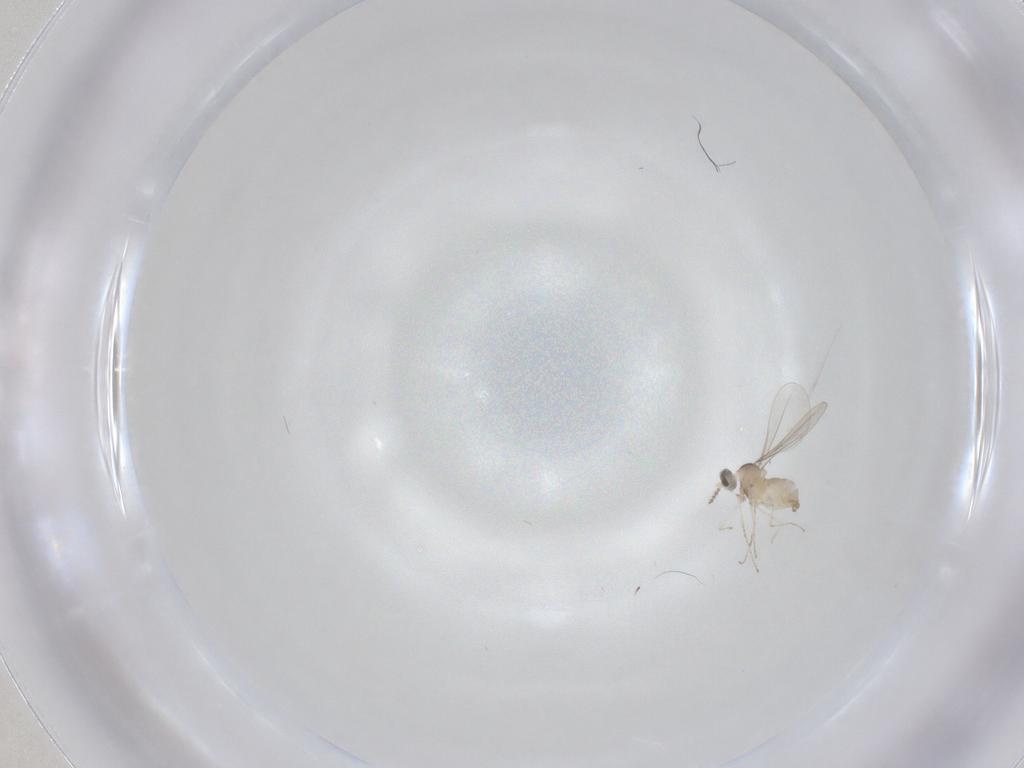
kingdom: Animalia
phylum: Arthropoda
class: Insecta
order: Diptera
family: Cecidomyiidae
